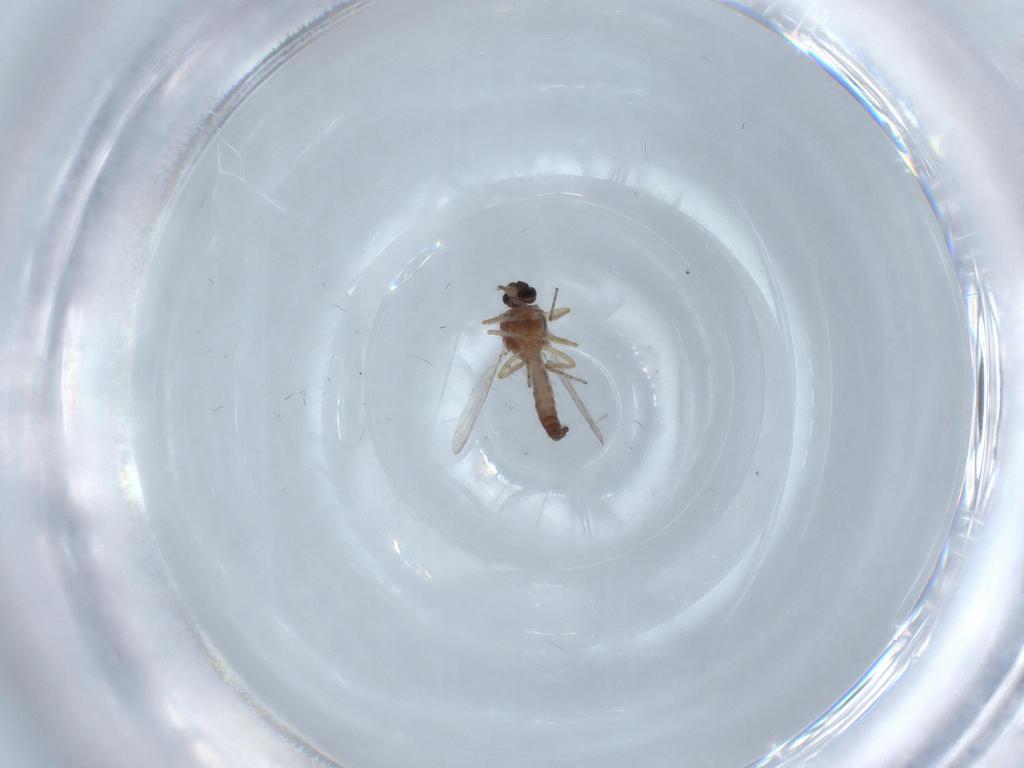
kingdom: Animalia
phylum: Arthropoda
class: Insecta
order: Diptera
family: Ceratopogonidae
